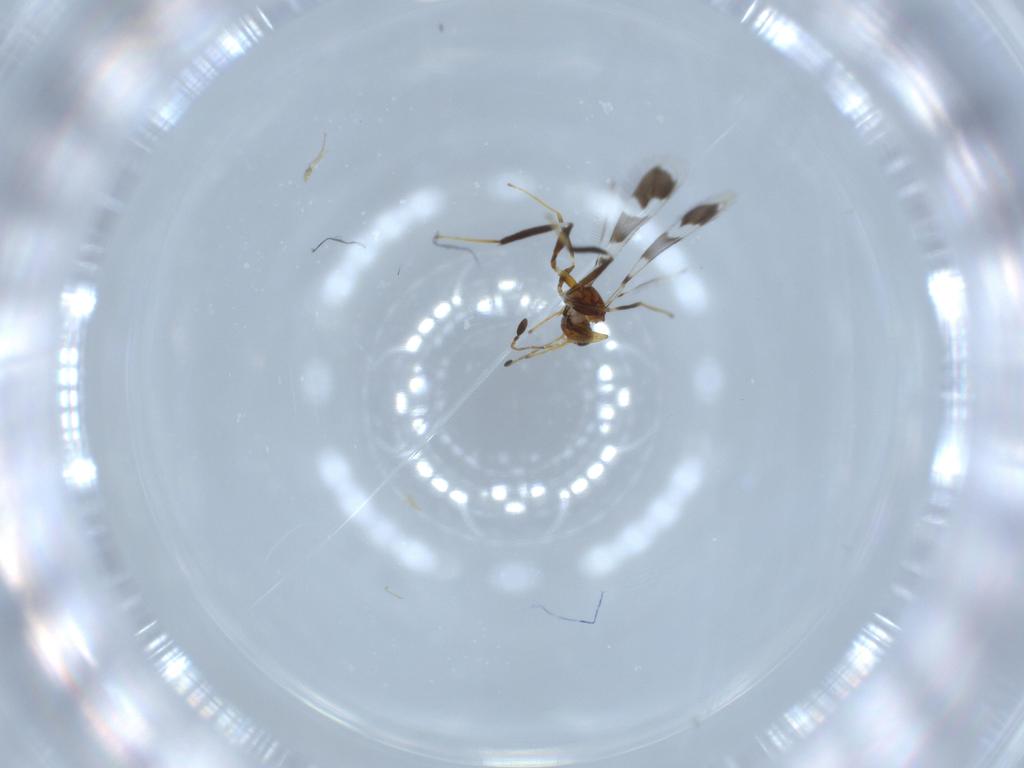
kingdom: Animalia
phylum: Arthropoda
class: Insecta
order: Hymenoptera
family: Mymaridae
